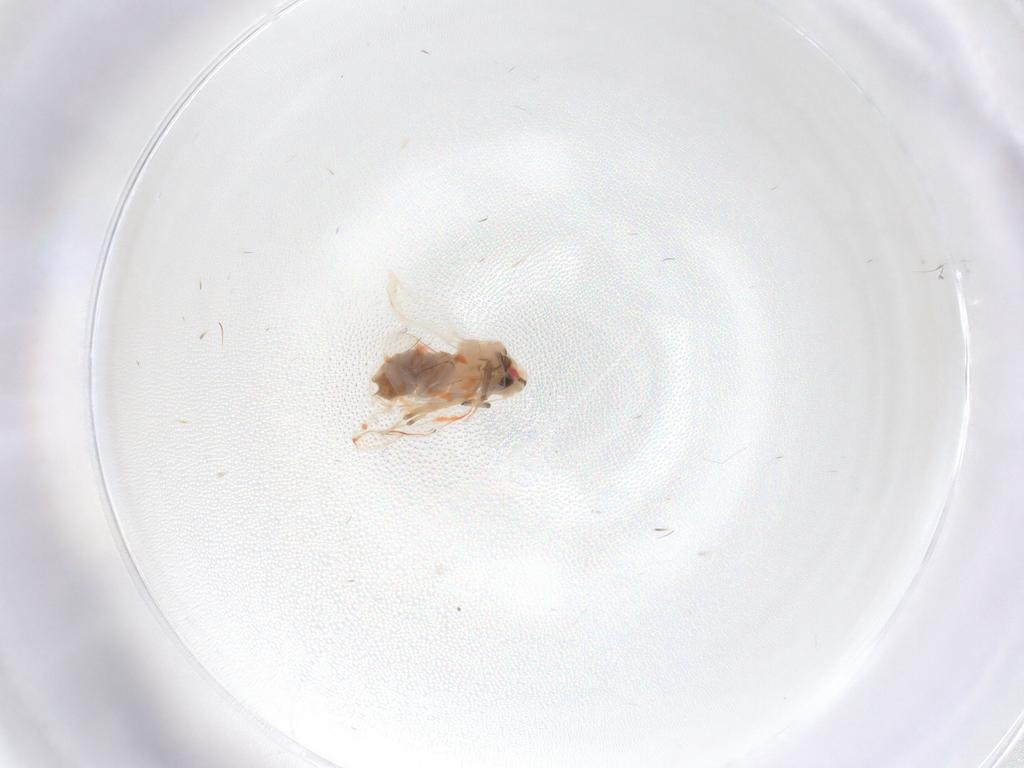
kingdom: Animalia
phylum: Arthropoda
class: Insecta
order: Hemiptera
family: Aleyrodidae
